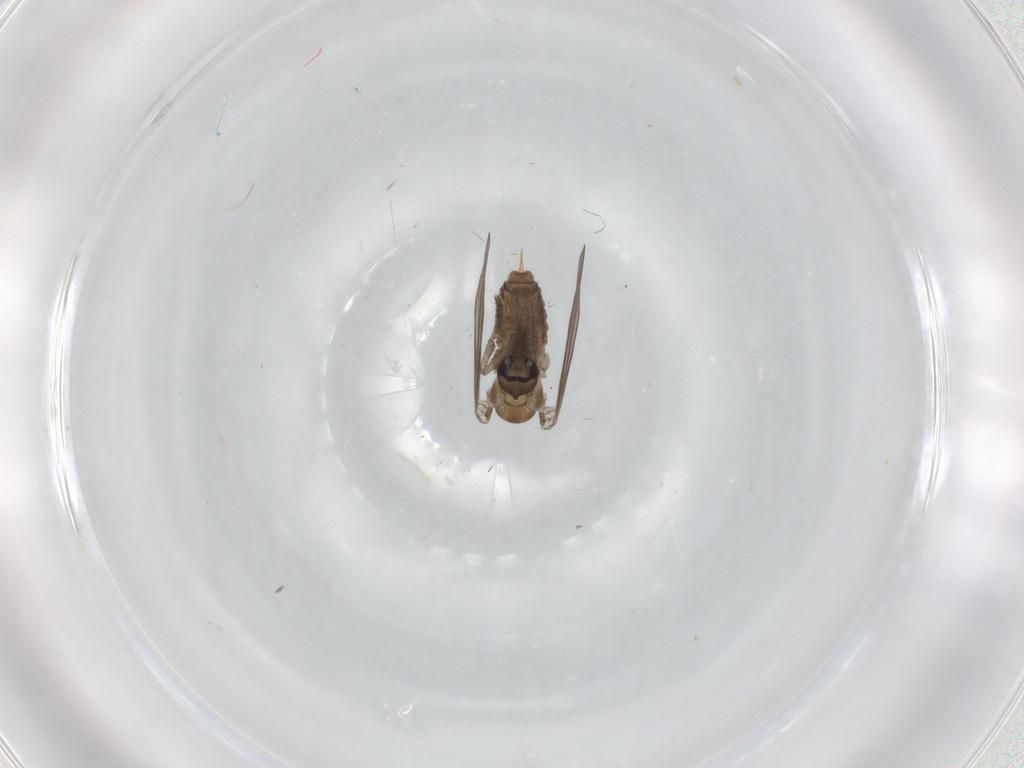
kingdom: Animalia
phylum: Arthropoda
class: Insecta
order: Diptera
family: Psychodidae
